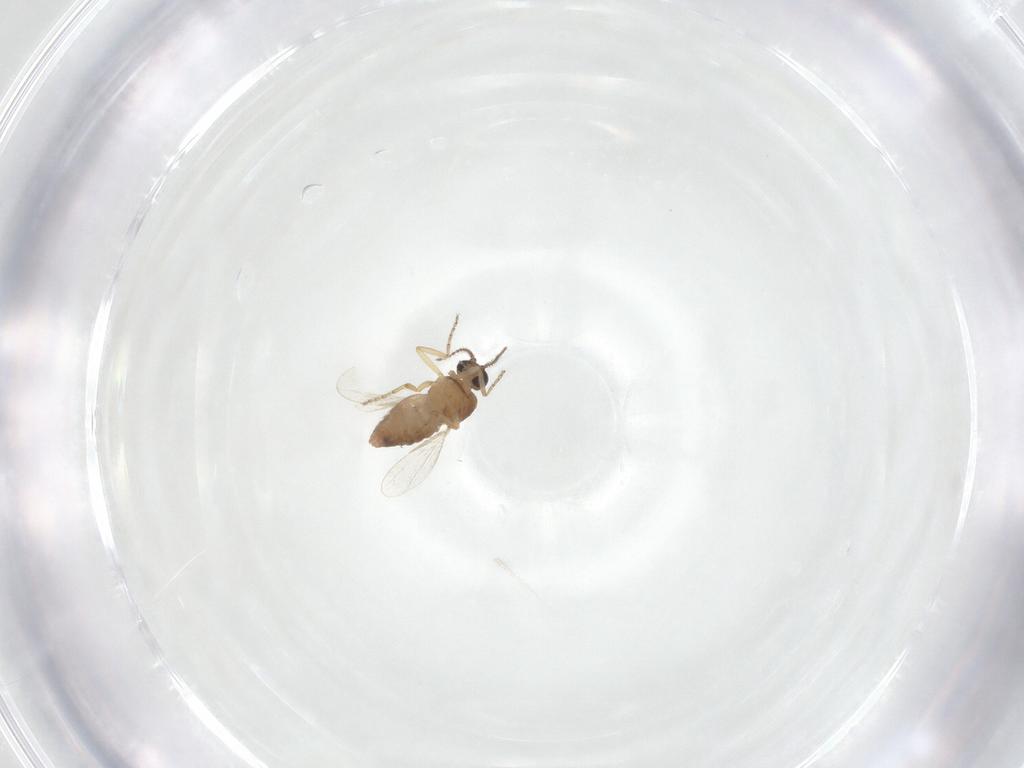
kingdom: Animalia
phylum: Arthropoda
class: Insecta
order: Diptera
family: Ceratopogonidae
